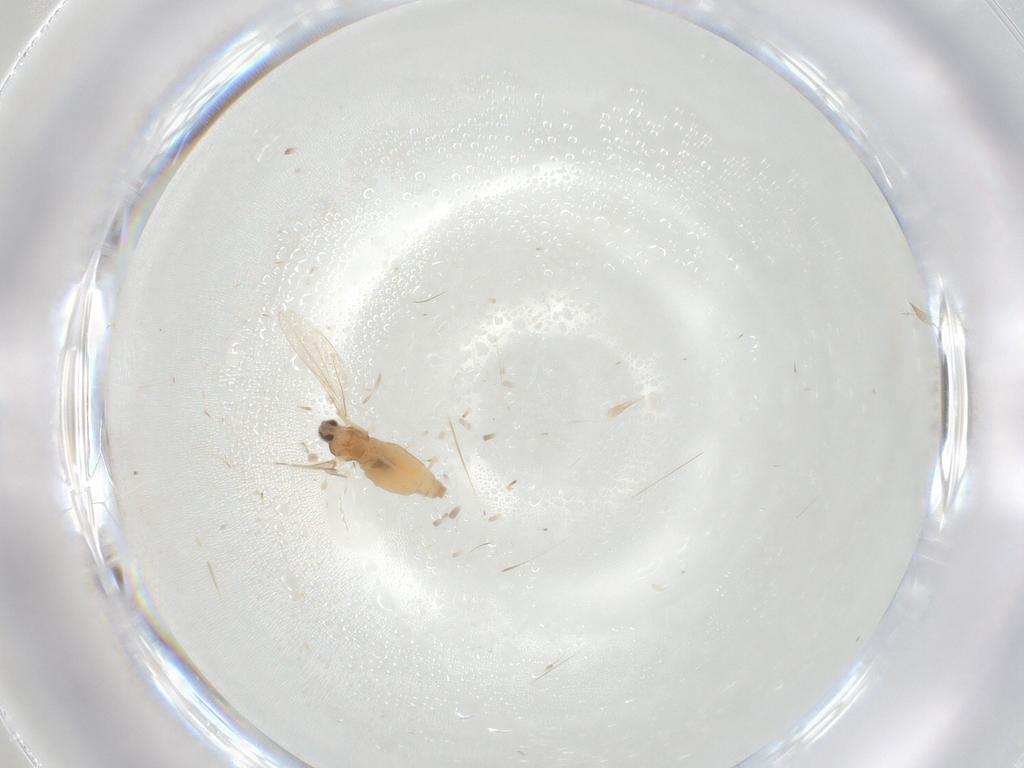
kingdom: Animalia
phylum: Arthropoda
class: Insecta
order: Diptera
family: Cecidomyiidae
